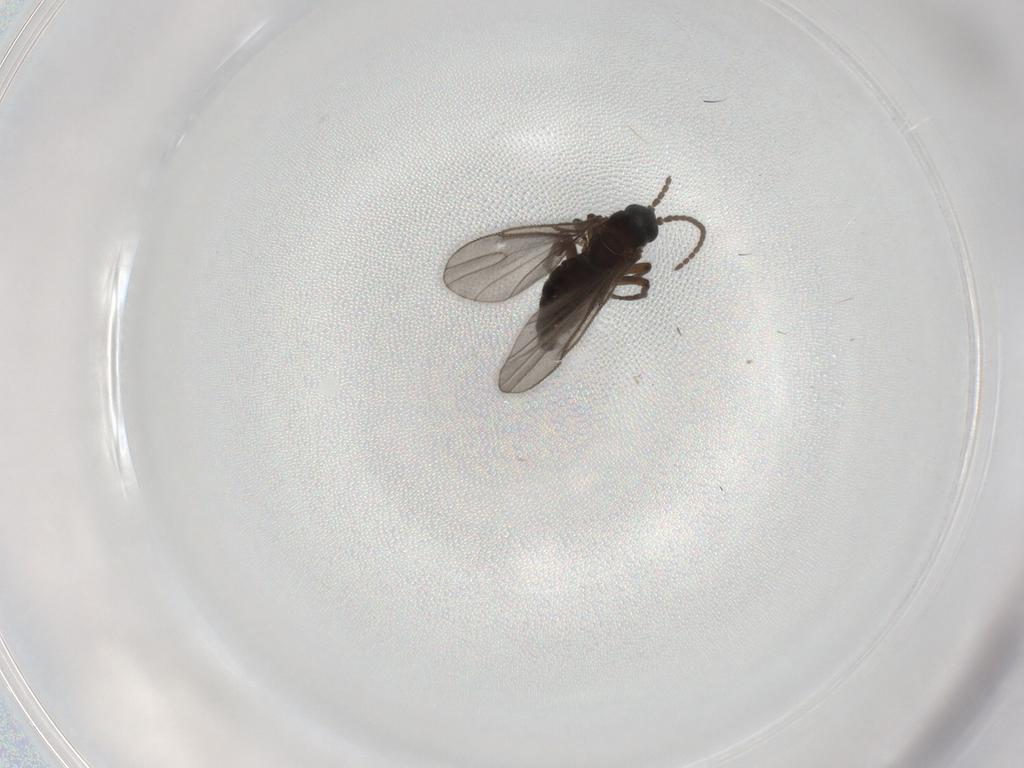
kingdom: Animalia
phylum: Arthropoda
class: Insecta
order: Diptera
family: Sciaridae
